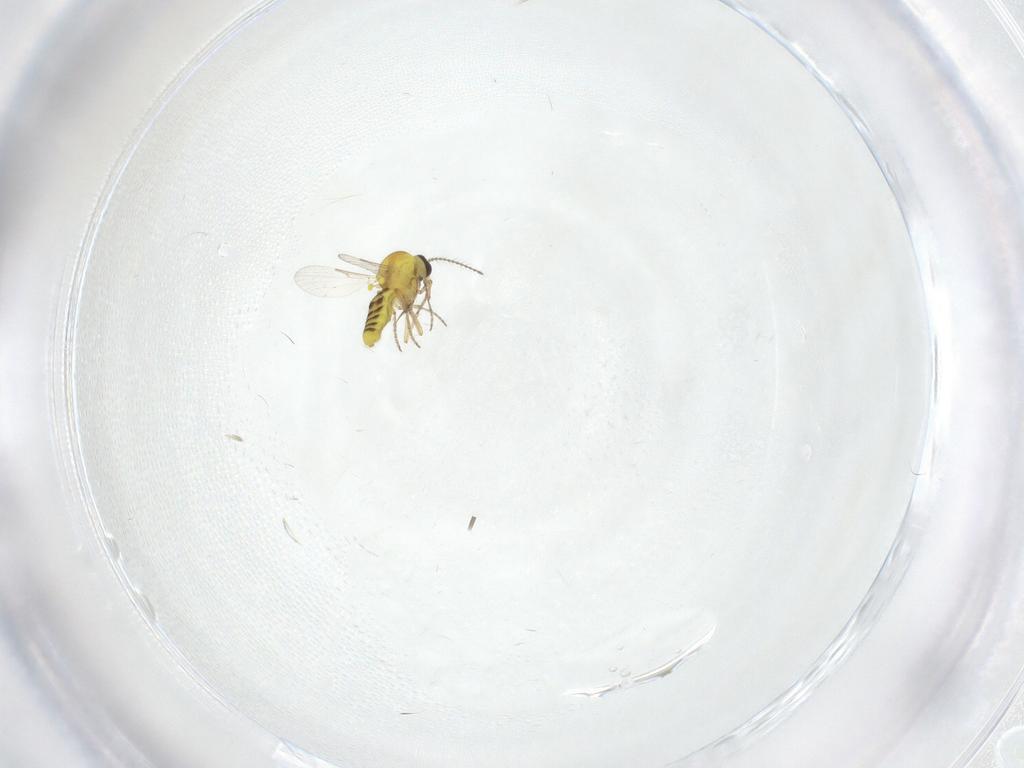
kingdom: Animalia
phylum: Arthropoda
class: Insecta
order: Diptera
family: Ceratopogonidae
